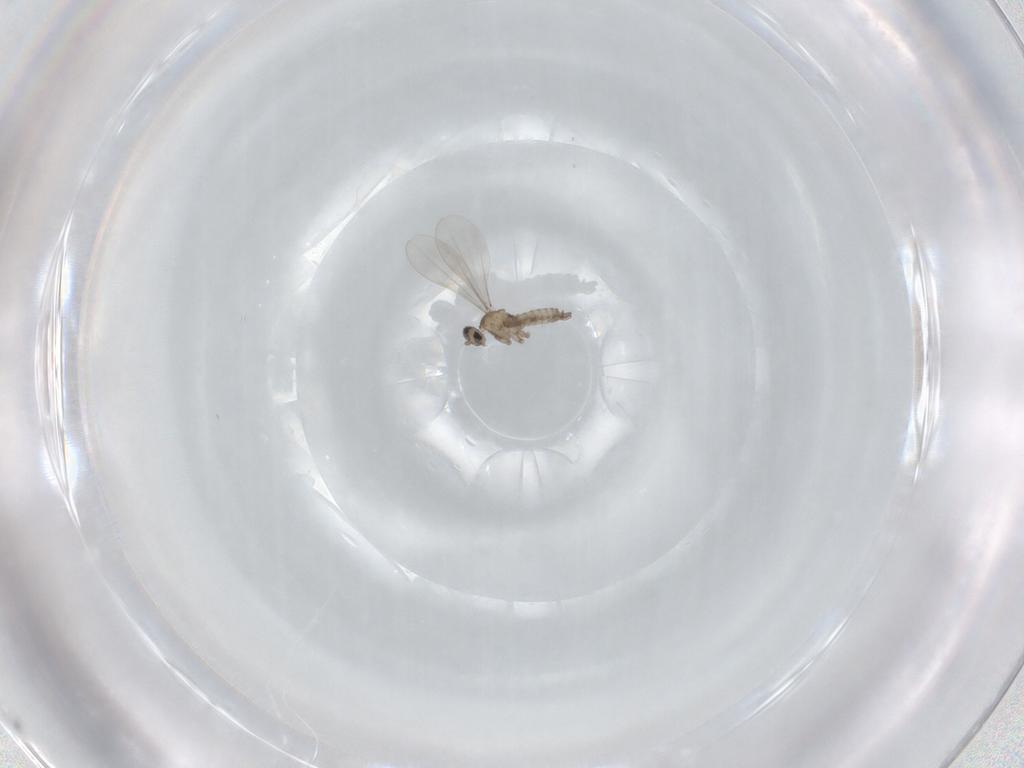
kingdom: Animalia
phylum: Arthropoda
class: Insecta
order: Diptera
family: Cecidomyiidae
